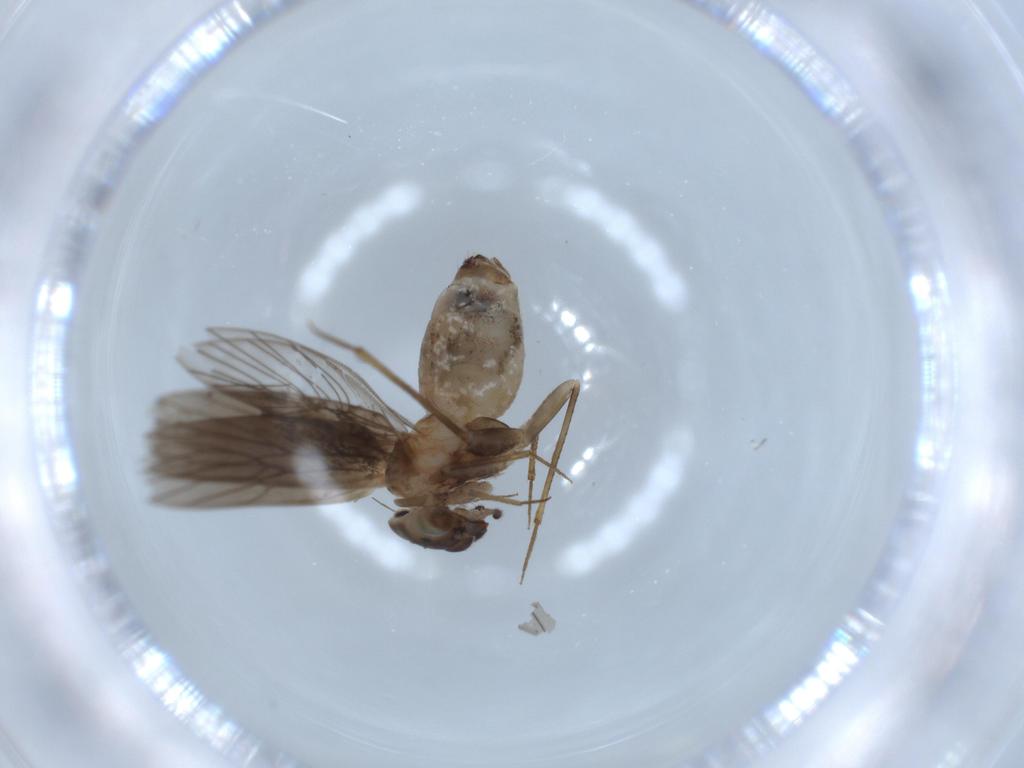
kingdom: Animalia
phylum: Arthropoda
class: Insecta
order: Psocodea
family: Lepidopsocidae
